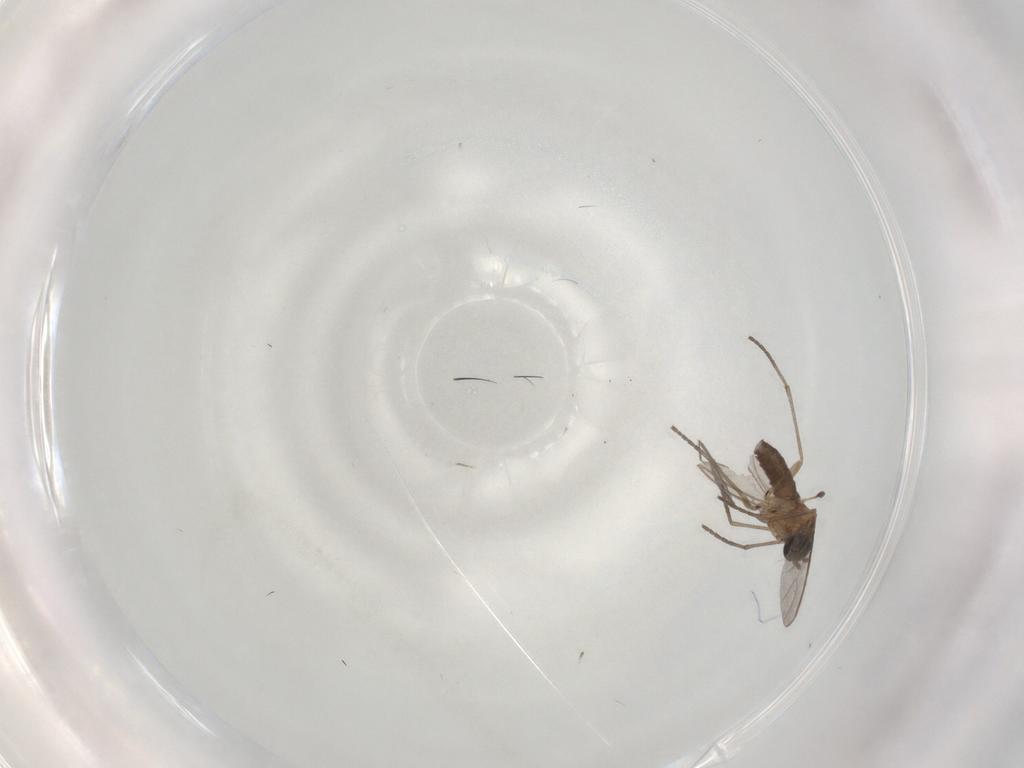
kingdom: Animalia
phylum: Arthropoda
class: Insecta
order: Diptera
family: Sciaridae
